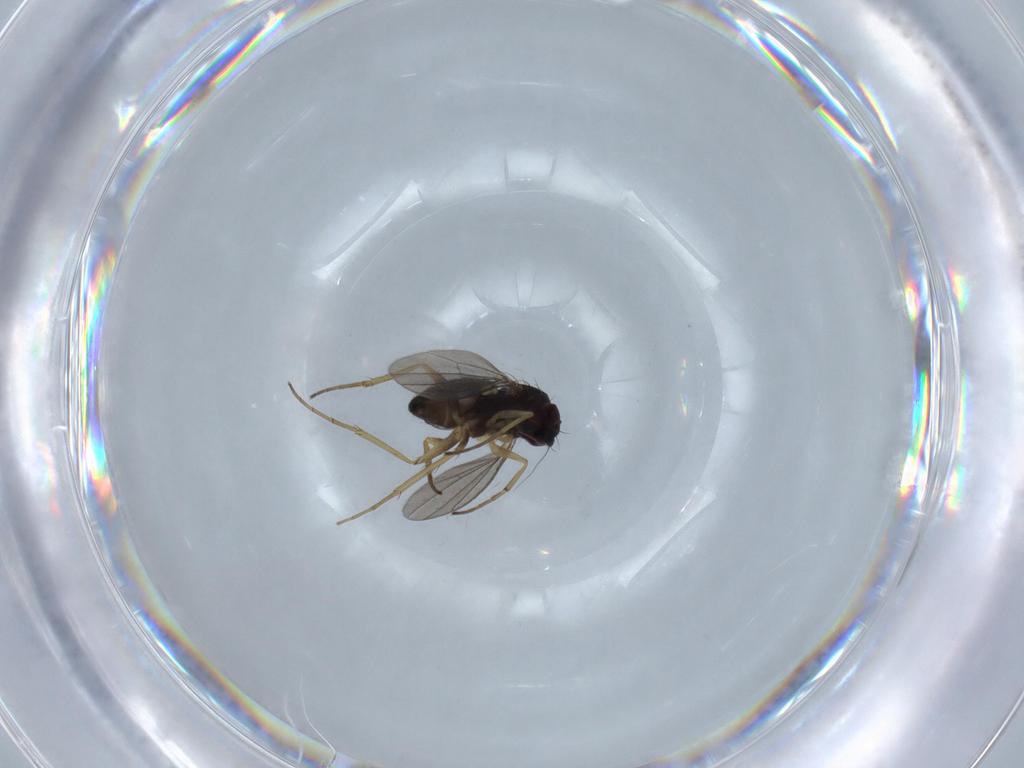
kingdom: Animalia
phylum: Arthropoda
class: Insecta
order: Diptera
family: Dolichopodidae
